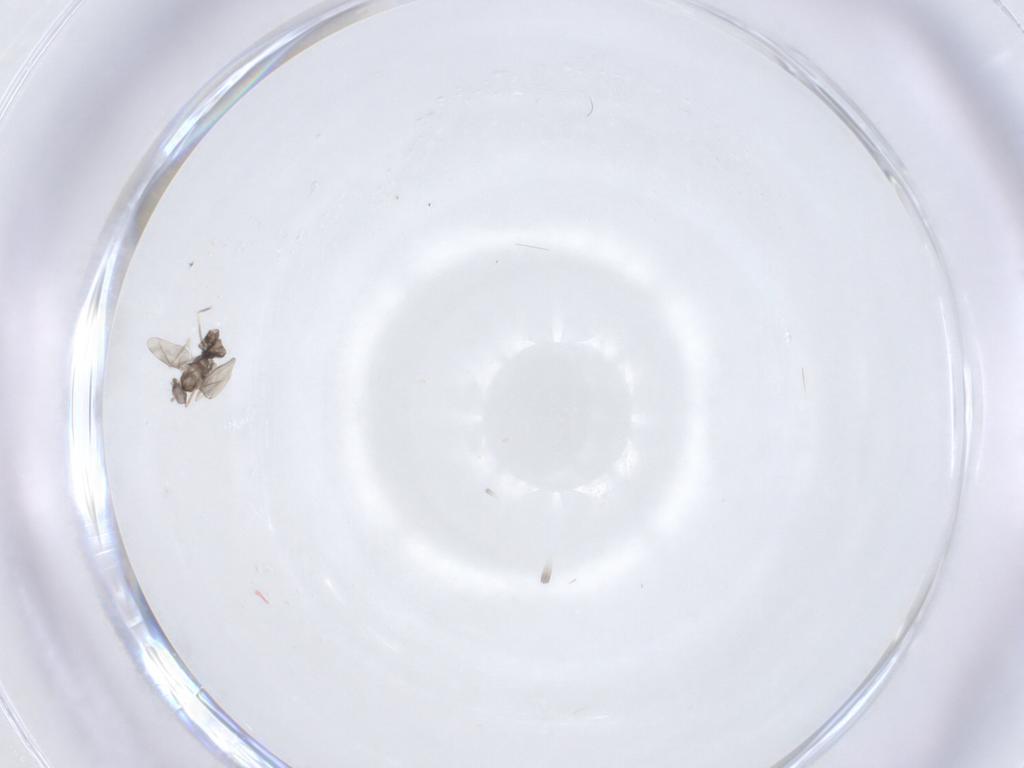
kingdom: Animalia
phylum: Arthropoda
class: Insecta
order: Diptera
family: Cecidomyiidae
